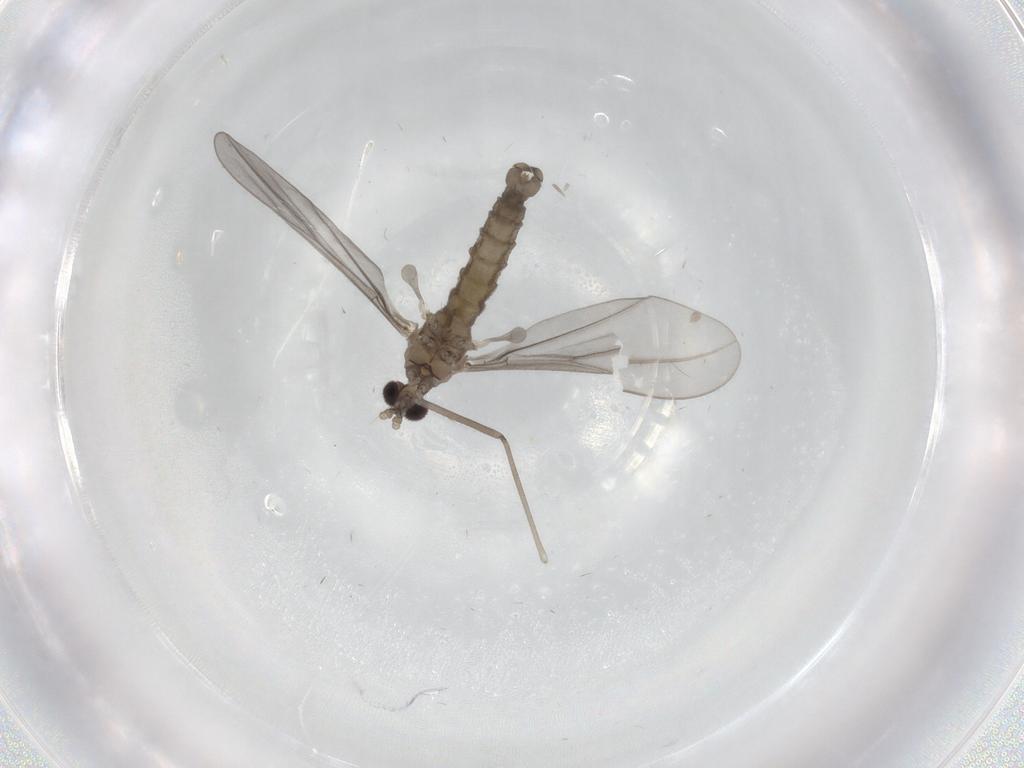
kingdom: Animalia
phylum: Arthropoda
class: Insecta
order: Diptera
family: Cecidomyiidae
